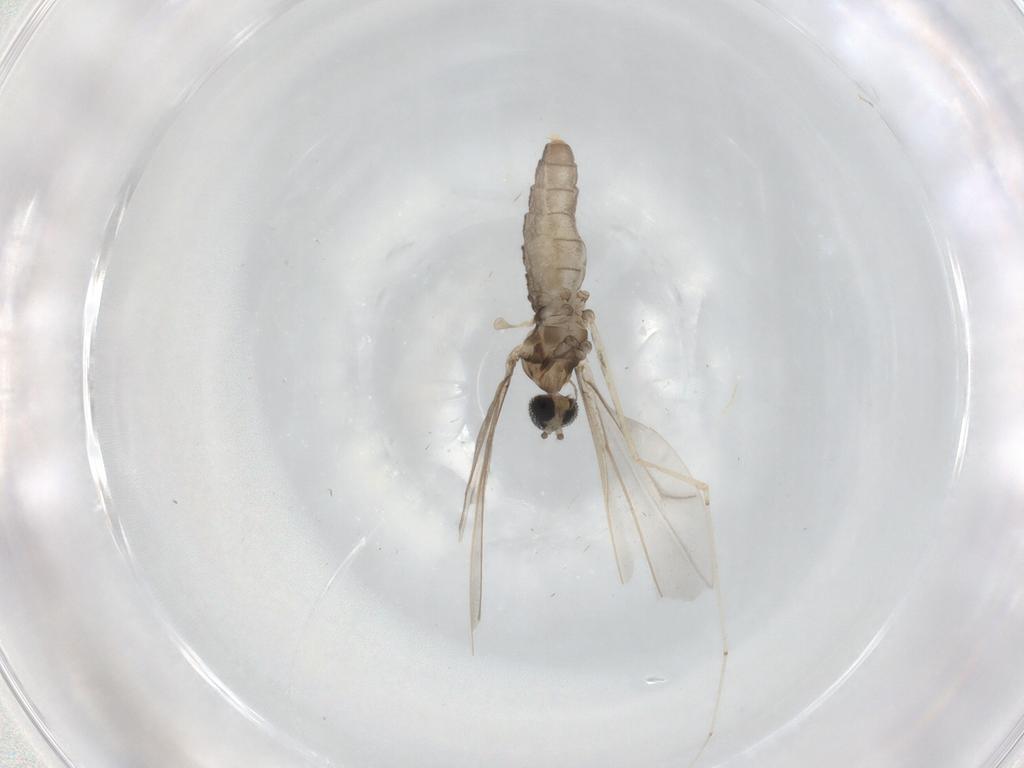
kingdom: Animalia
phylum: Arthropoda
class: Insecta
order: Diptera
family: Cecidomyiidae
